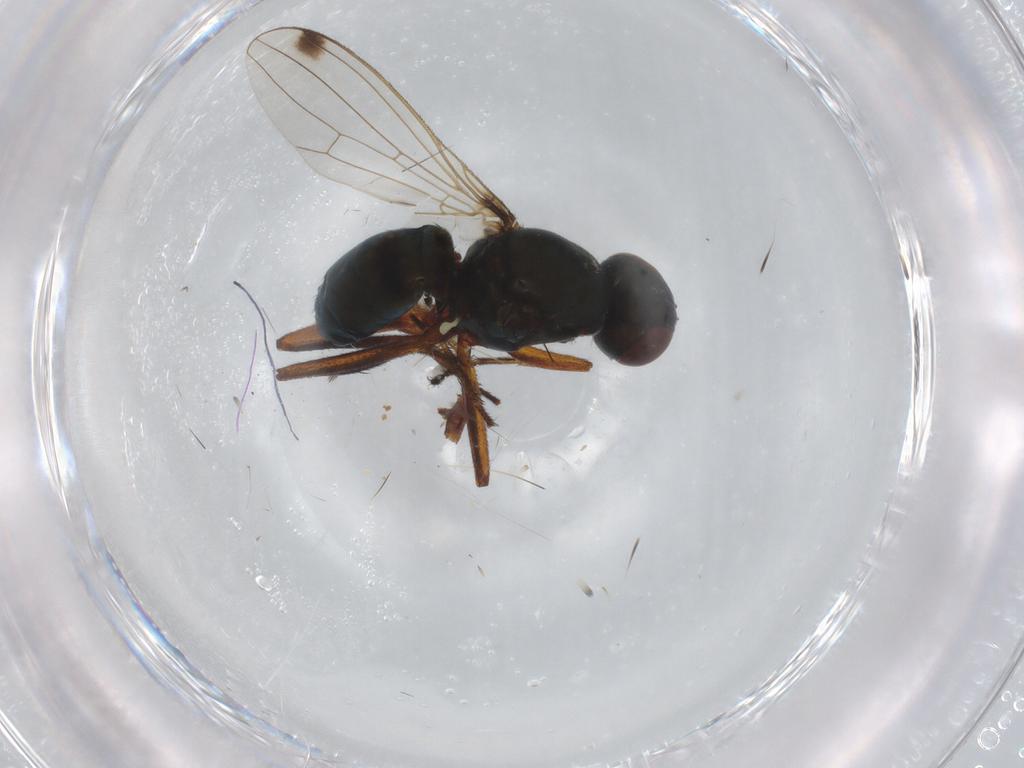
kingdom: Animalia
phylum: Arthropoda
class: Insecta
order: Diptera
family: Sepsidae
